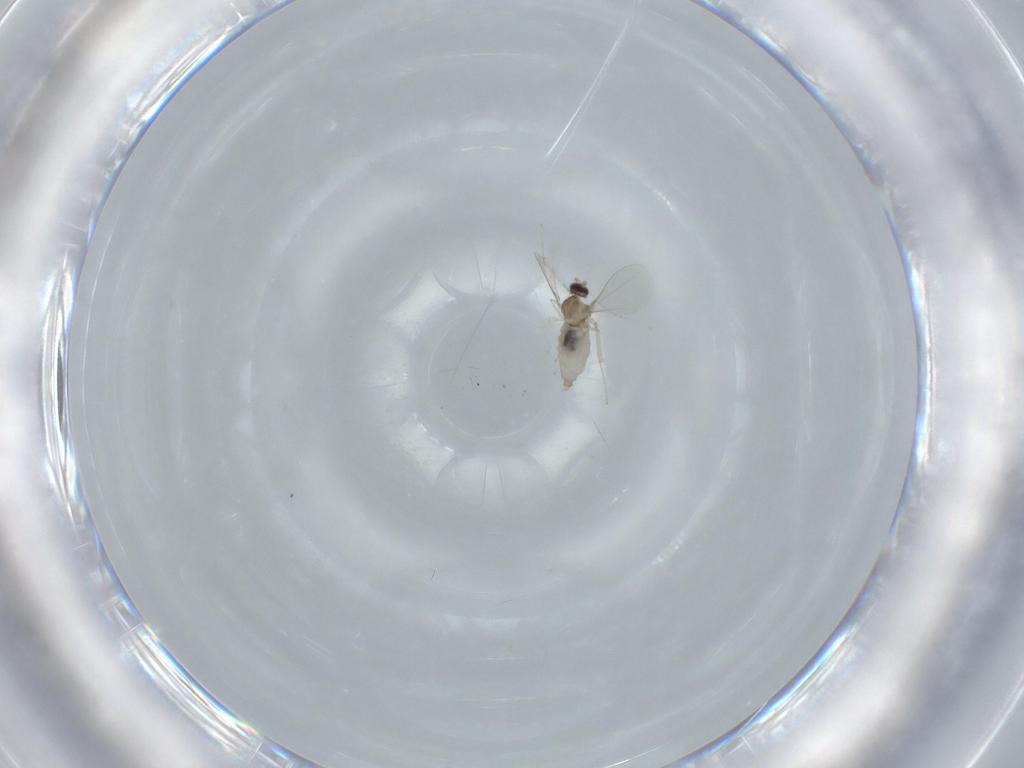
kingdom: Animalia
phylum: Arthropoda
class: Insecta
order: Diptera
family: Cecidomyiidae
